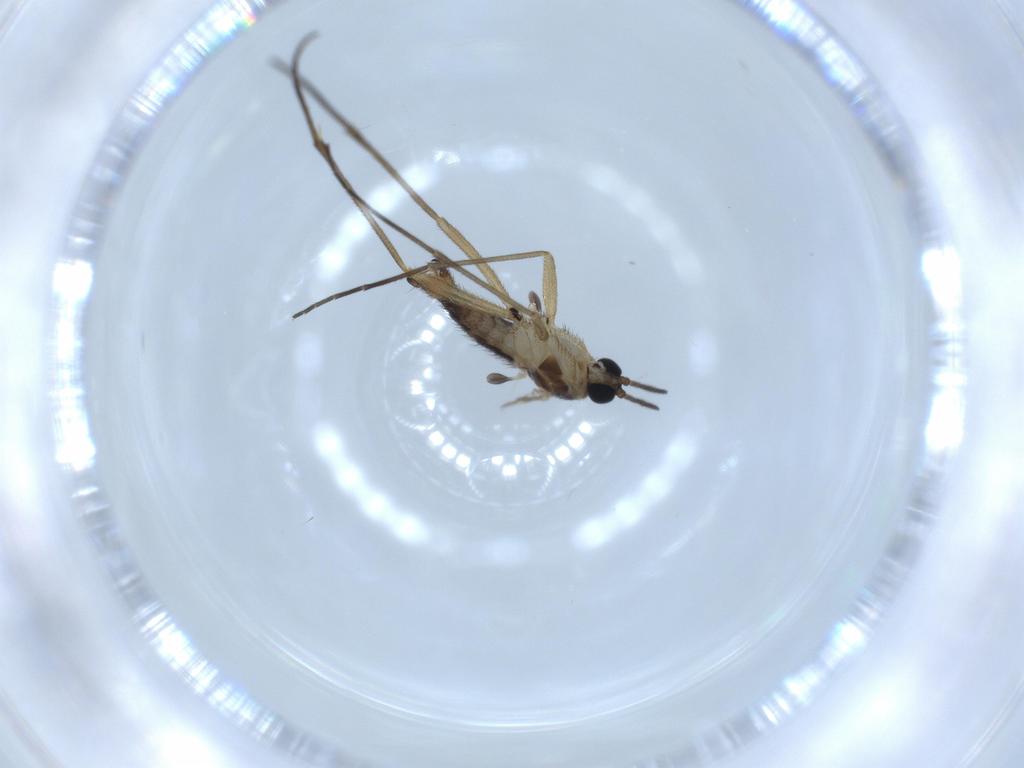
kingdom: Animalia
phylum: Arthropoda
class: Insecta
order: Diptera
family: Sciaridae
